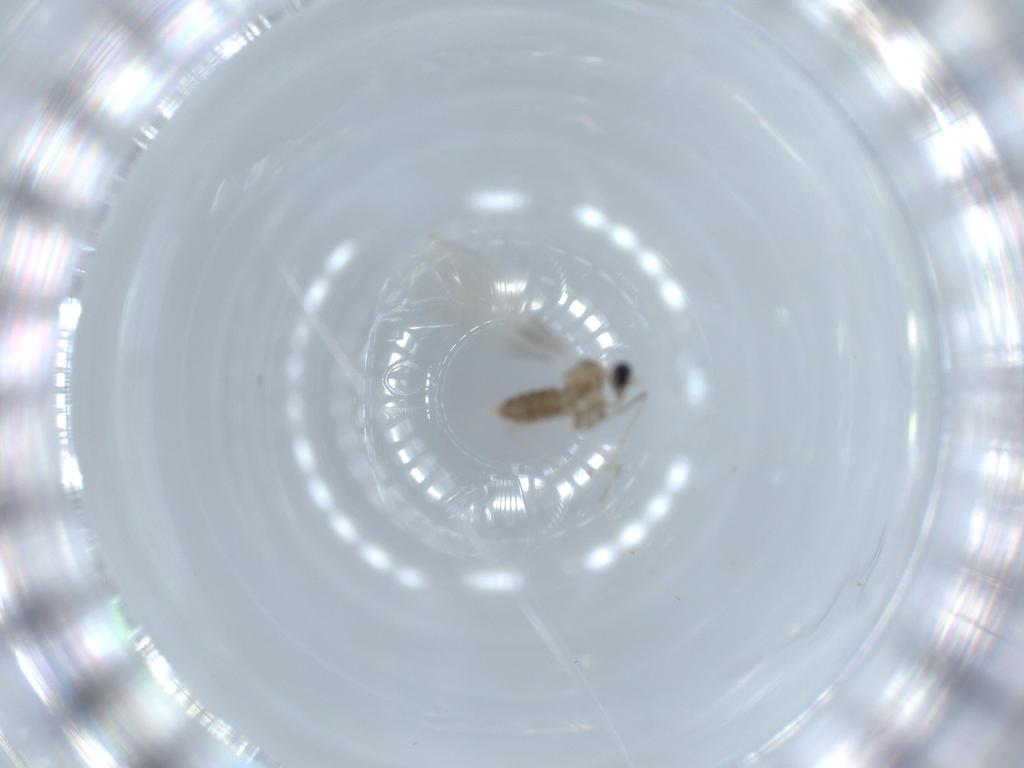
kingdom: Animalia
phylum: Arthropoda
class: Insecta
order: Diptera
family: Cecidomyiidae
